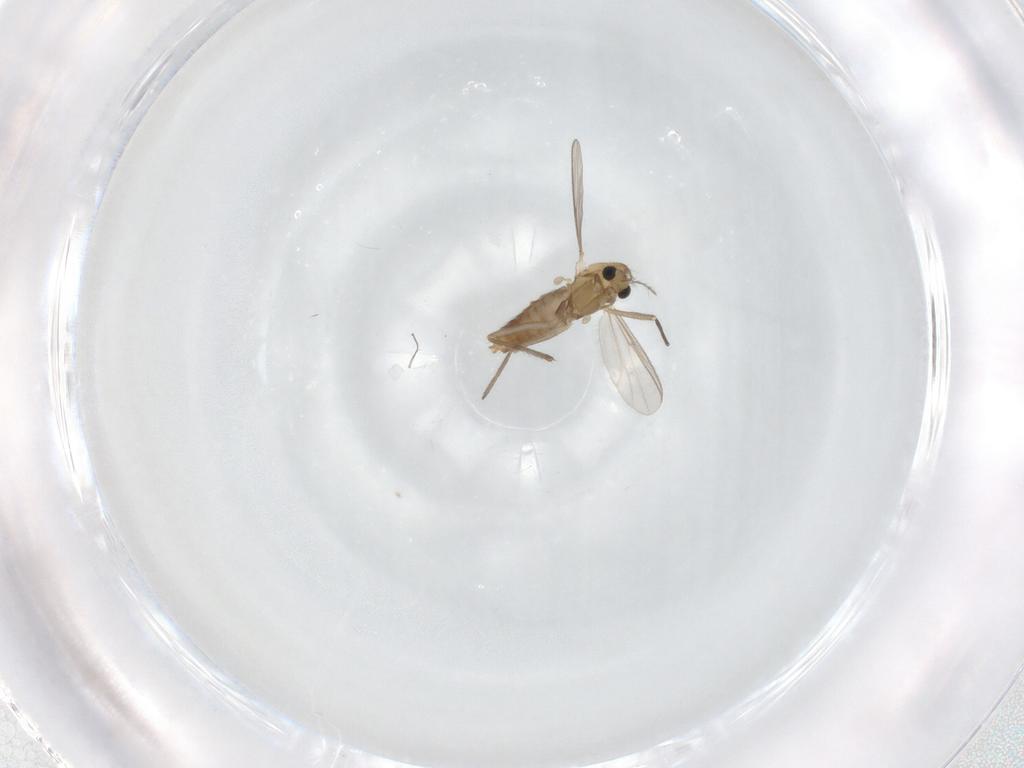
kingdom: Animalia
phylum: Arthropoda
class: Insecta
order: Diptera
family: Chironomidae
